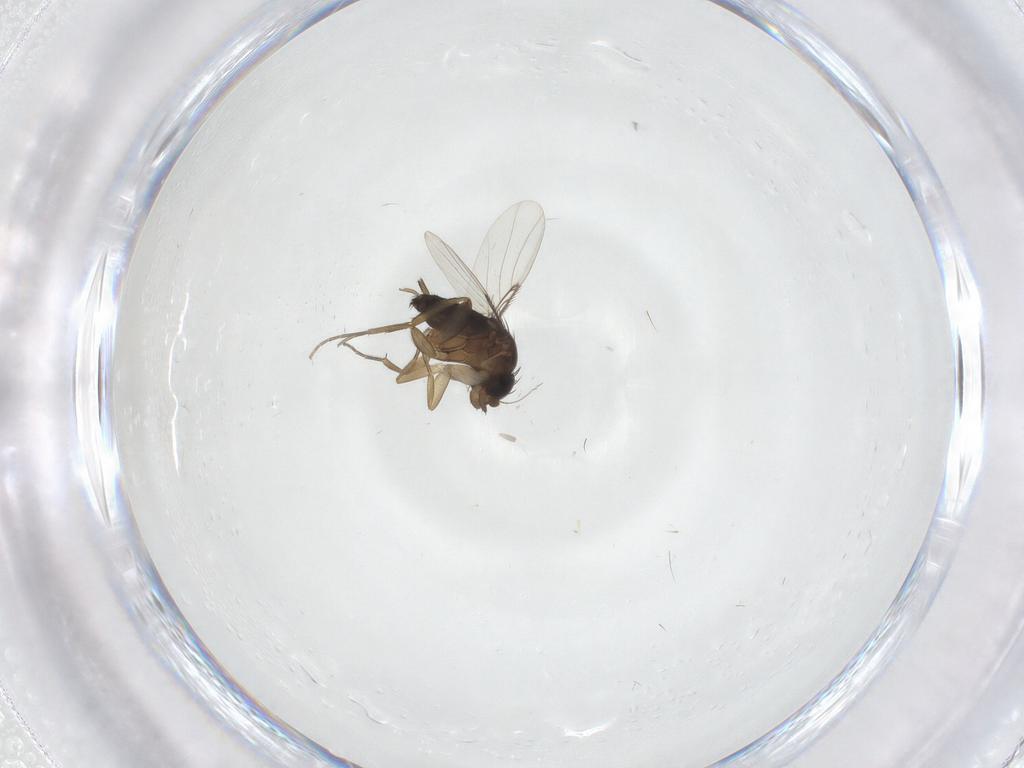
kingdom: Animalia
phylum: Arthropoda
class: Insecta
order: Diptera
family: Phoridae
